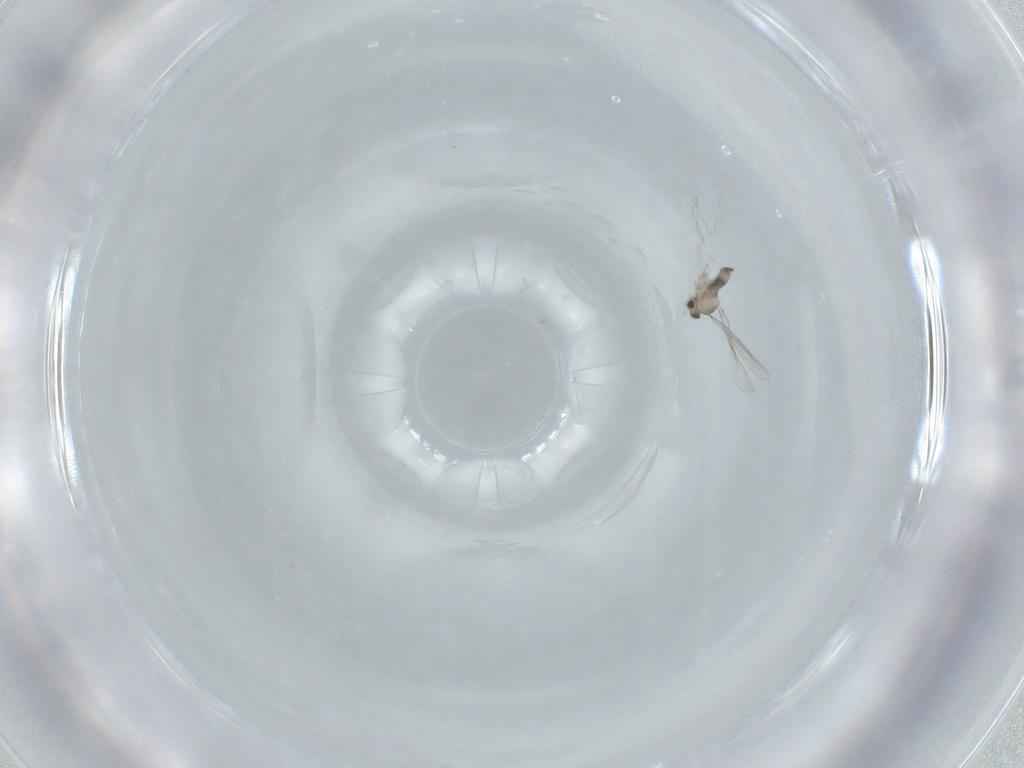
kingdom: Animalia
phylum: Arthropoda
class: Insecta
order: Diptera
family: Cecidomyiidae
